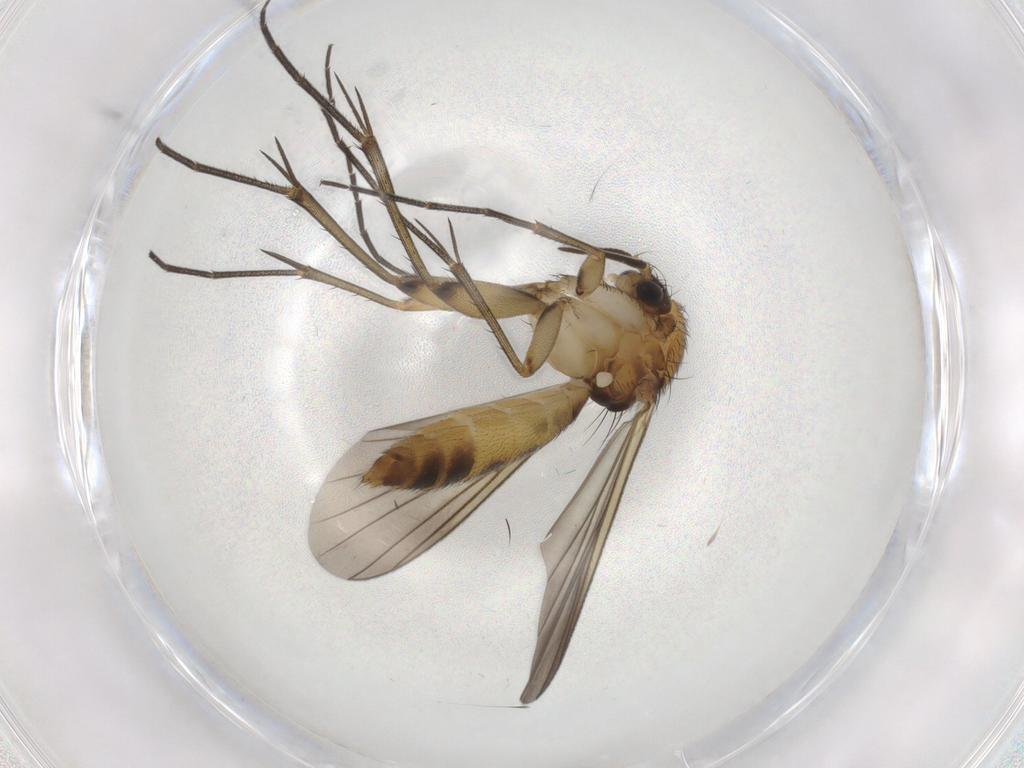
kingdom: Animalia
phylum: Arthropoda
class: Insecta
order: Diptera
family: Mycetophilidae
